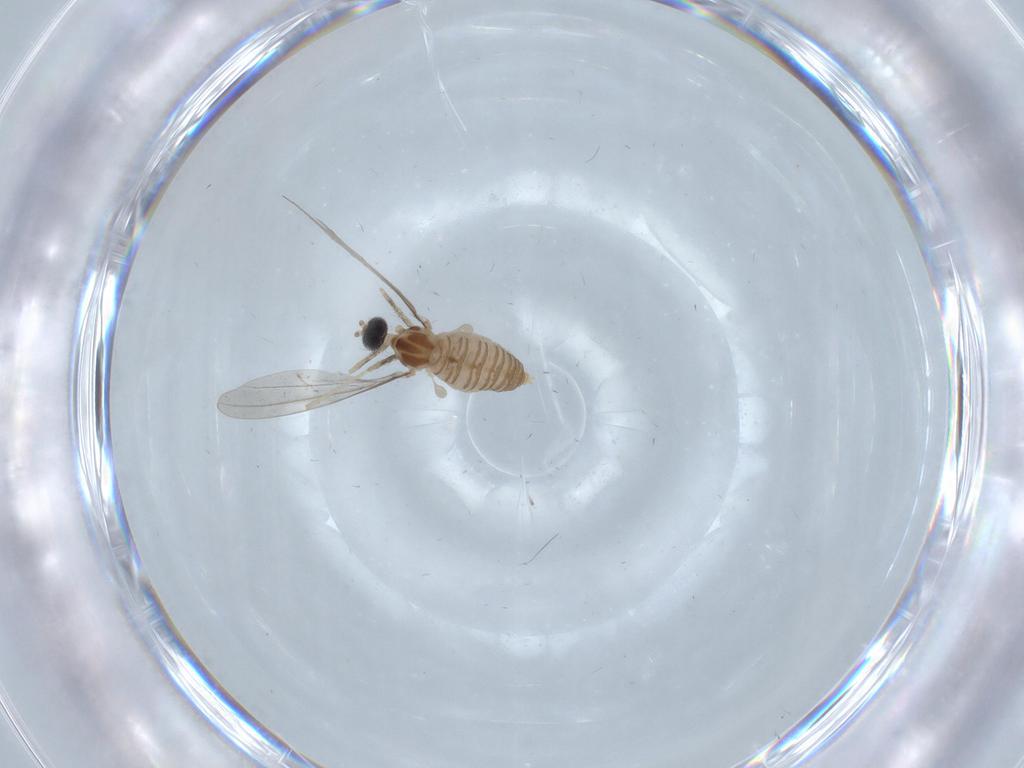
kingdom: Animalia
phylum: Arthropoda
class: Insecta
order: Diptera
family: Cecidomyiidae
